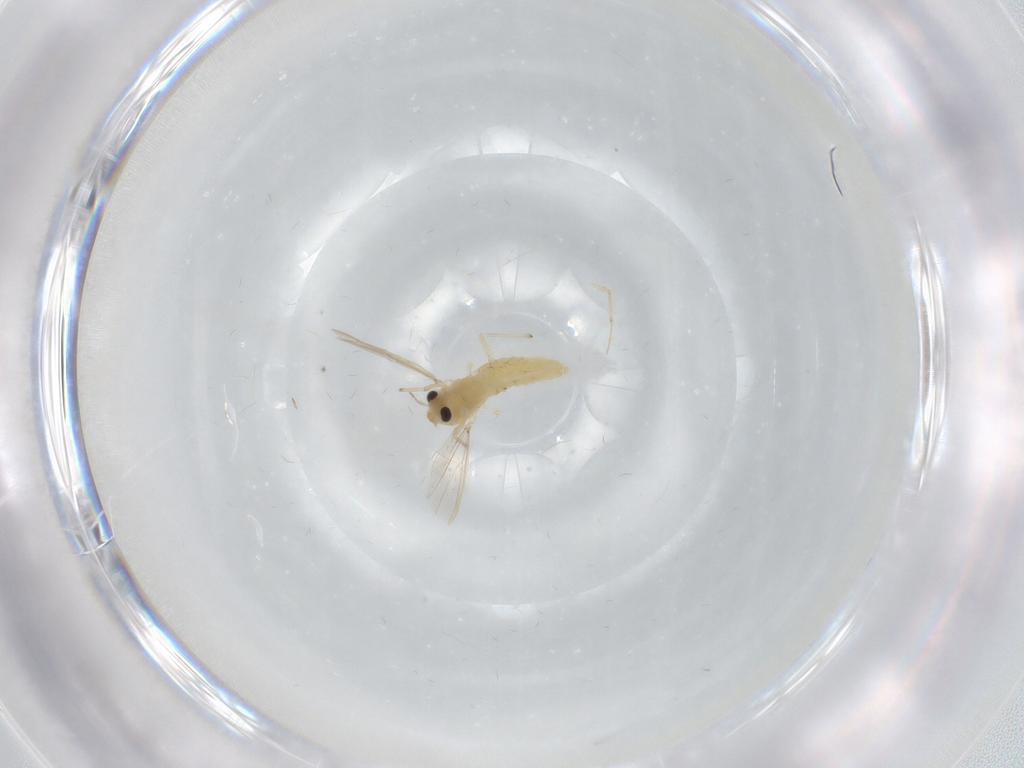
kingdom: Animalia
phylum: Arthropoda
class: Insecta
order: Diptera
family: Chironomidae
